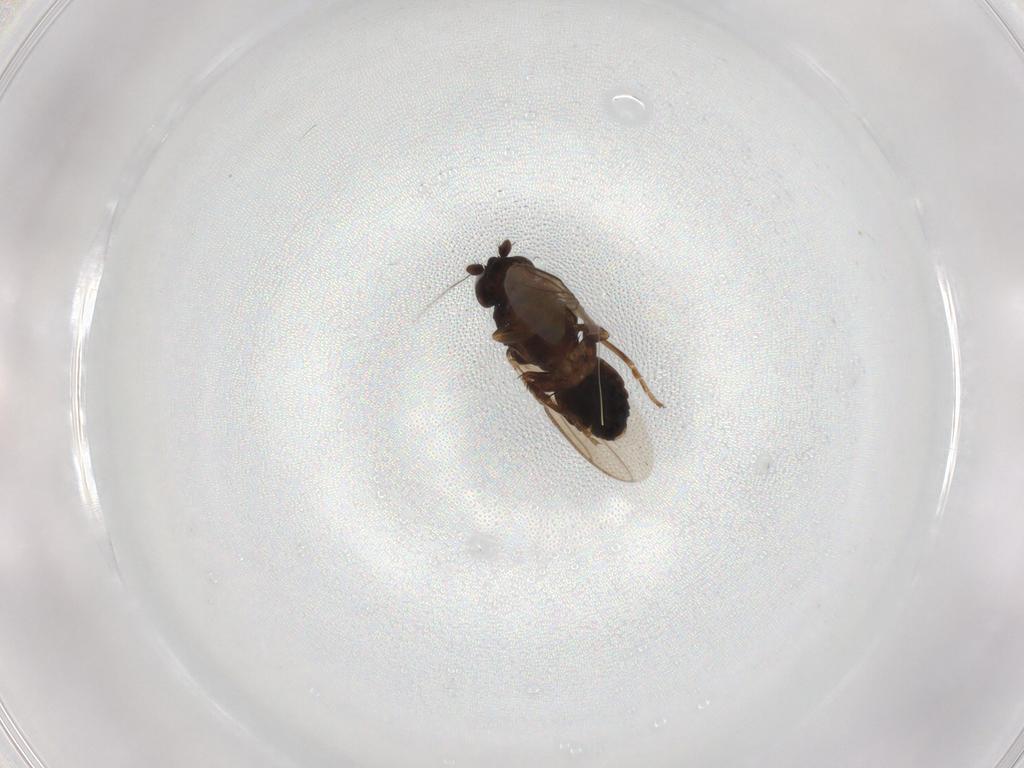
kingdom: Animalia
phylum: Arthropoda
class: Insecta
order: Diptera
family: Sphaeroceridae
